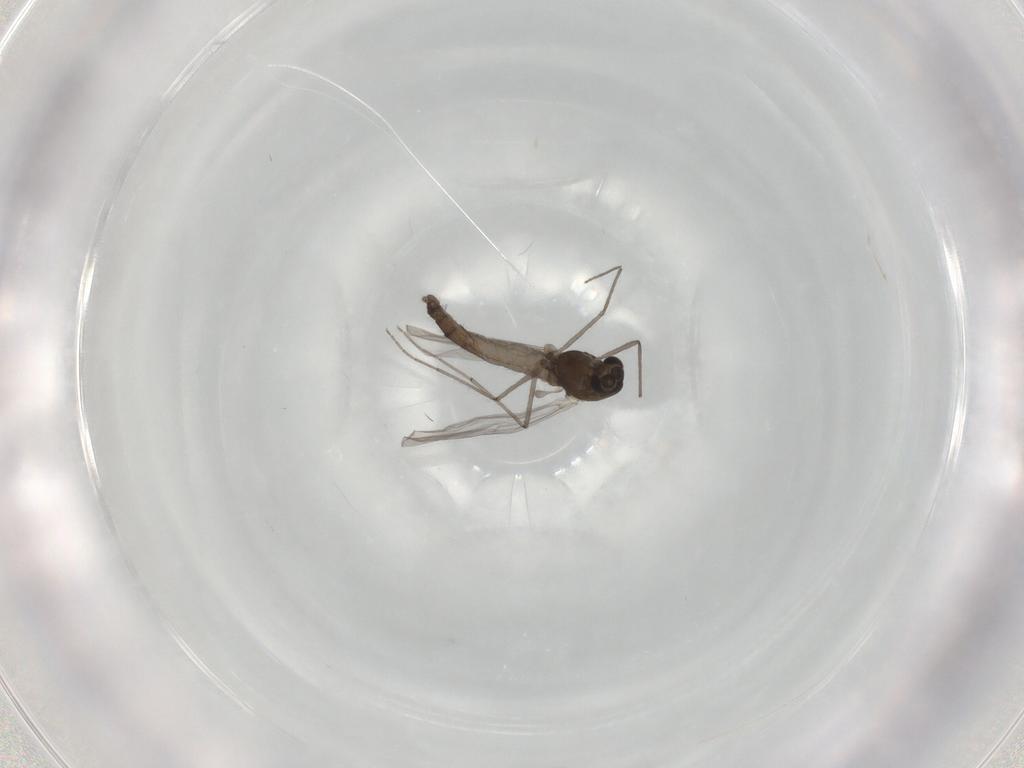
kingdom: Animalia
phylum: Arthropoda
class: Insecta
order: Diptera
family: Chironomidae
